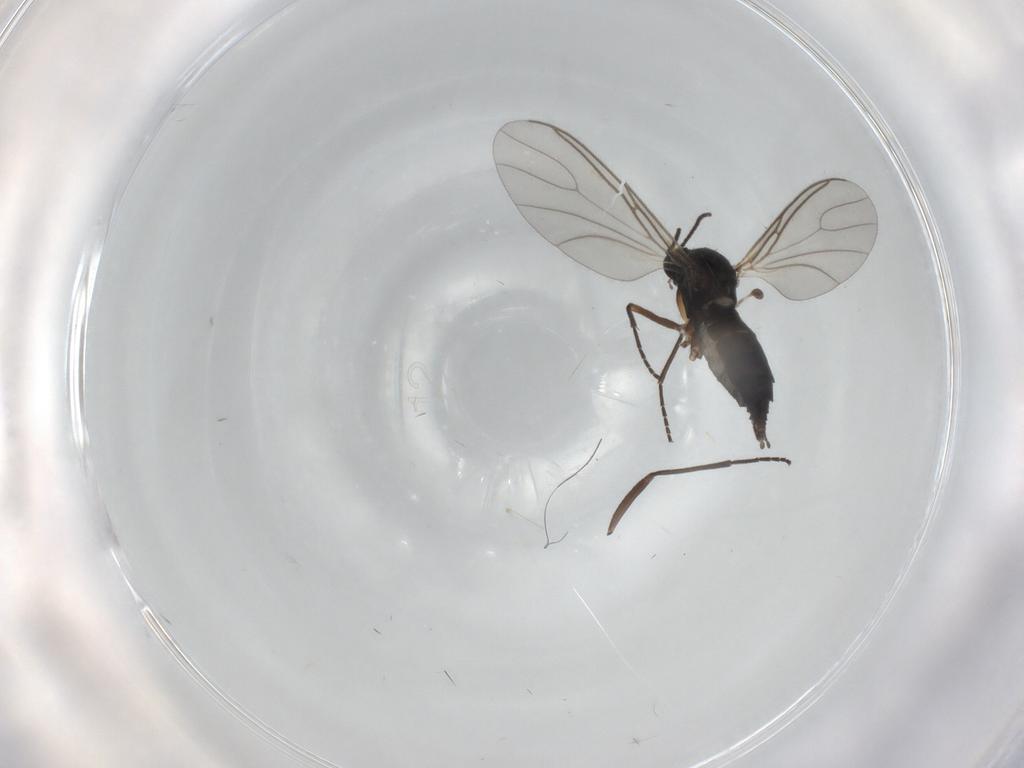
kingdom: Animalia
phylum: Arthropoda
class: Insecta
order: Diptera
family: Sciaridae
